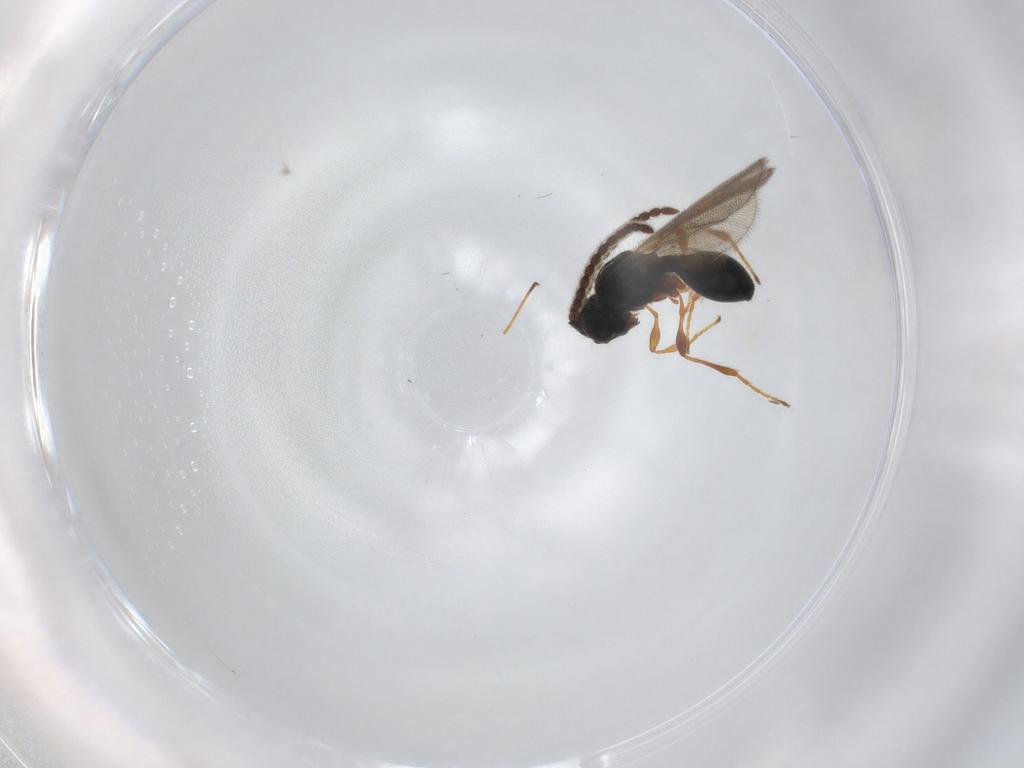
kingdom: Animalia
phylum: Arthropoda
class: Insecta
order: Hymenoptera
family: Diapriidae
